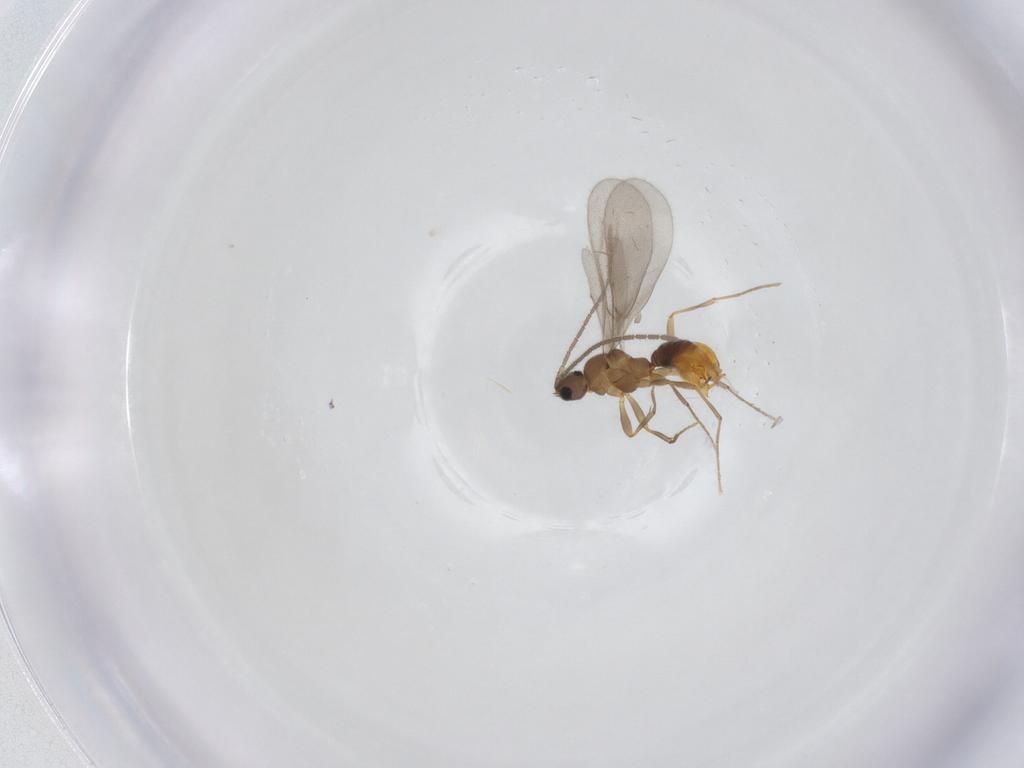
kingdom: Animalia
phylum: Arthropoda
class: Insecta
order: Hymenoptera
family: Formicidae
